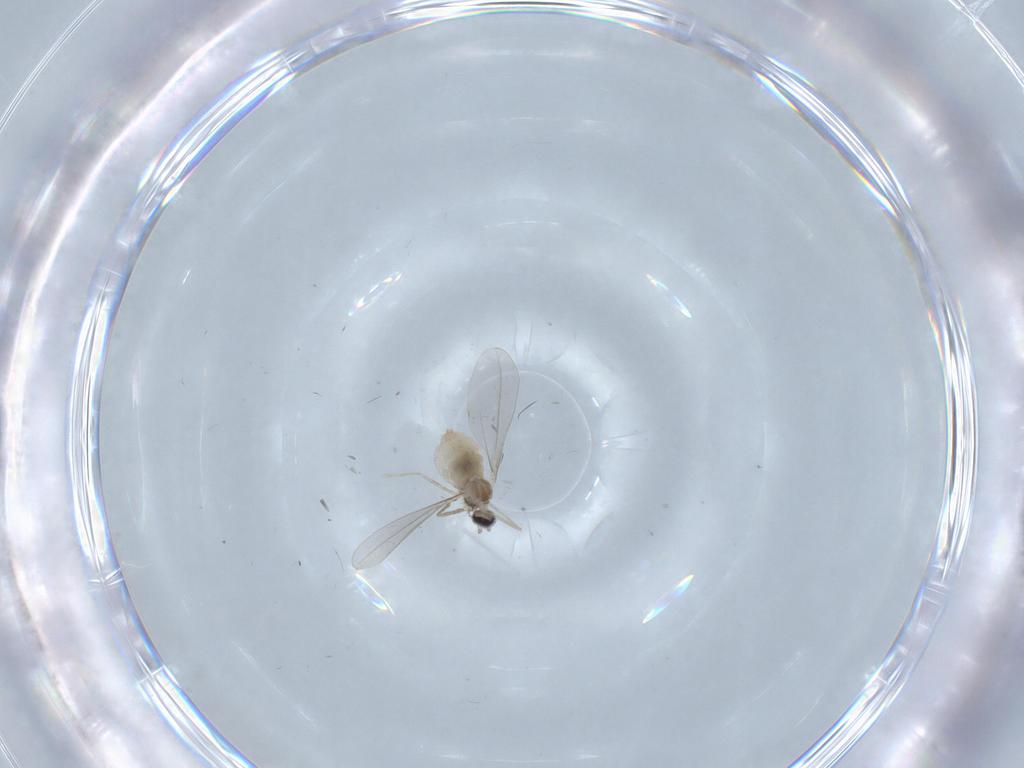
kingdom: Animalia
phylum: Arthropoda
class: Insecta
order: Diptera
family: Cecidomyiidae
